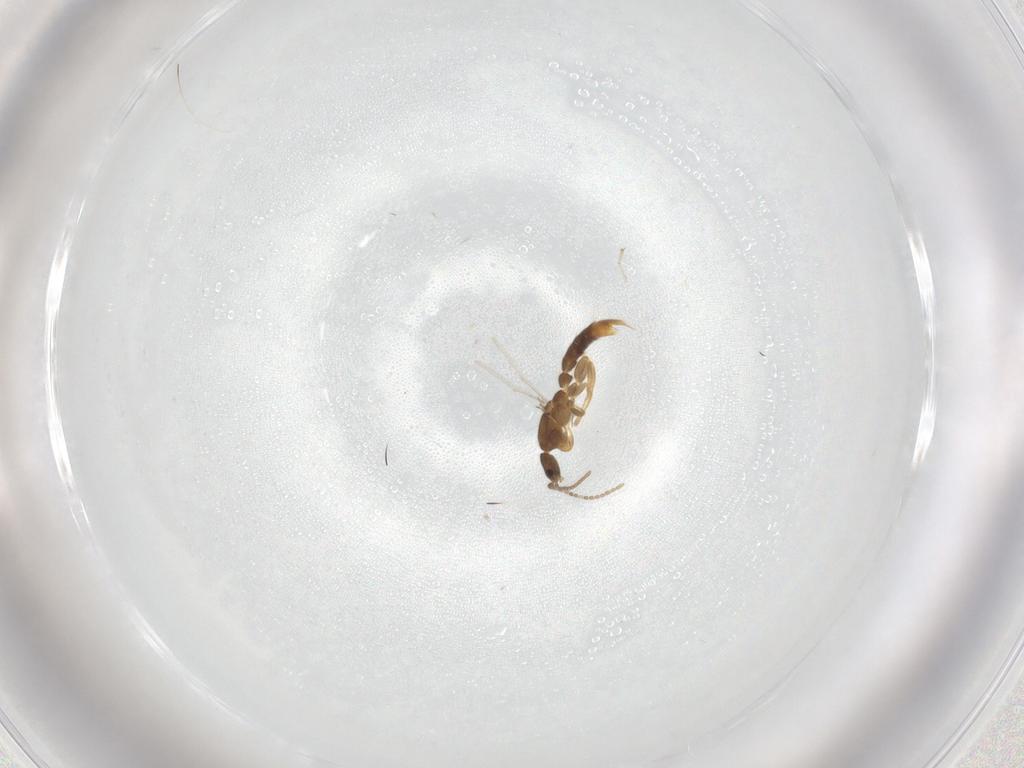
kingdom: Animalia
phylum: Arthropoda
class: Insecta
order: Hymenoptera
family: Formicidae
